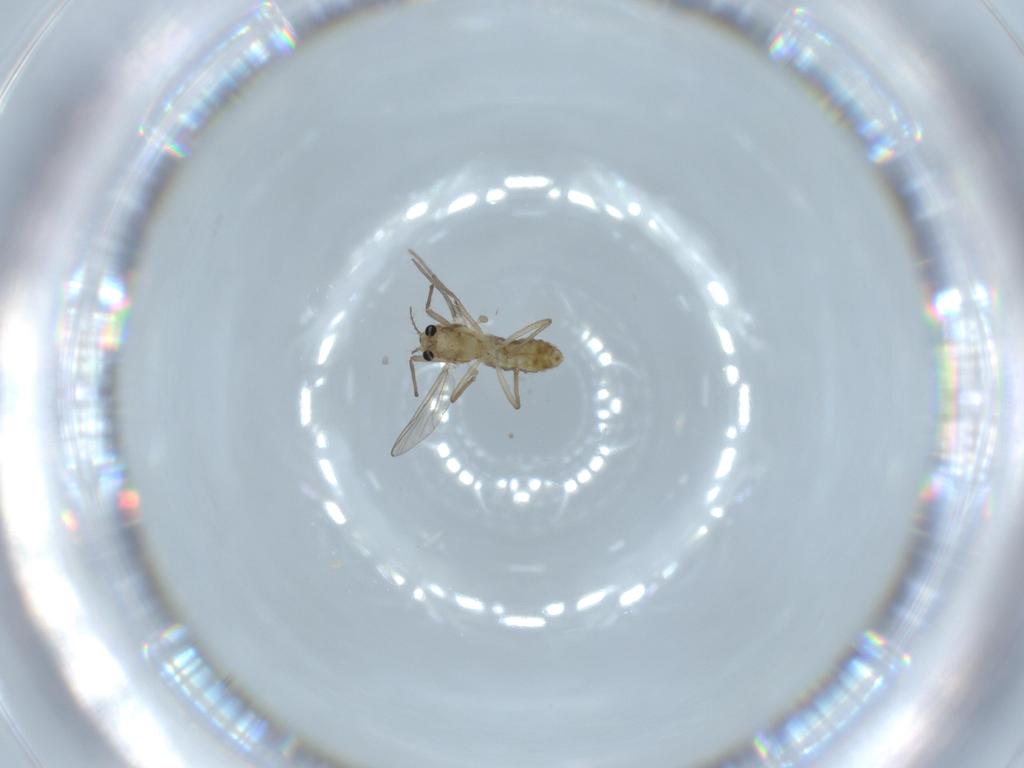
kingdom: Animalia
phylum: Arthropoda
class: Insecta
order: Diptera
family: Chironomidae
